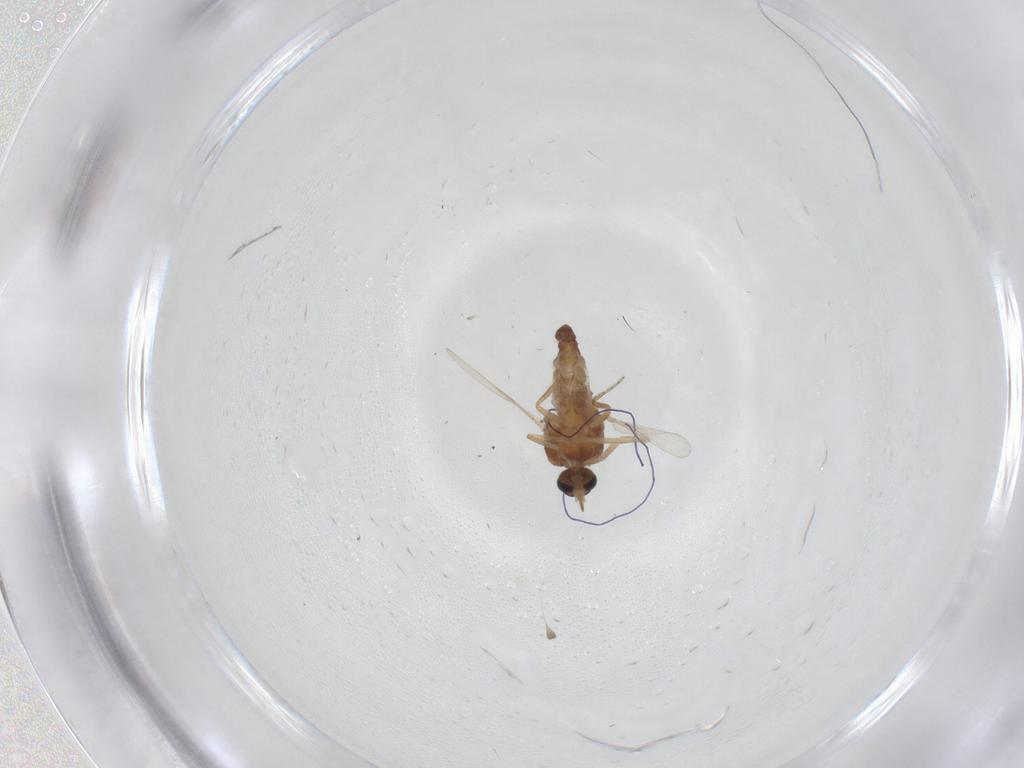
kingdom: Animalia
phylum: Arthropoda
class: Insecta
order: Diptera
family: Ceratopogonidae
